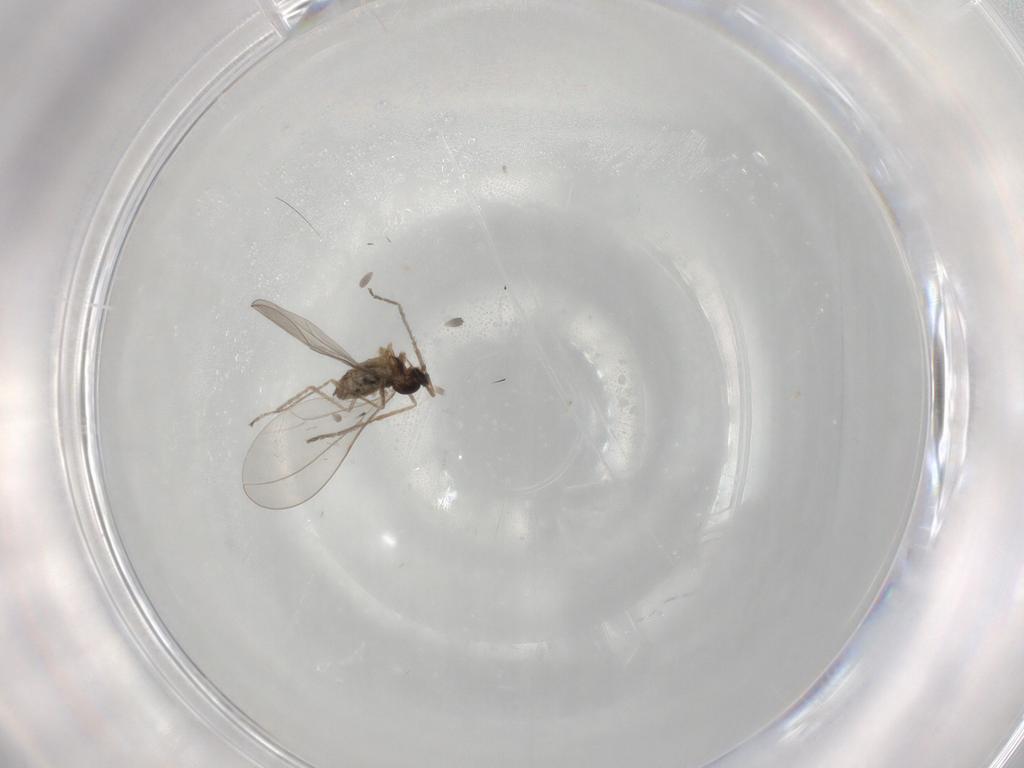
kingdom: Animalia
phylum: Arthropoda
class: Insecta
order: Diptera
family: Cecidomyiidae
